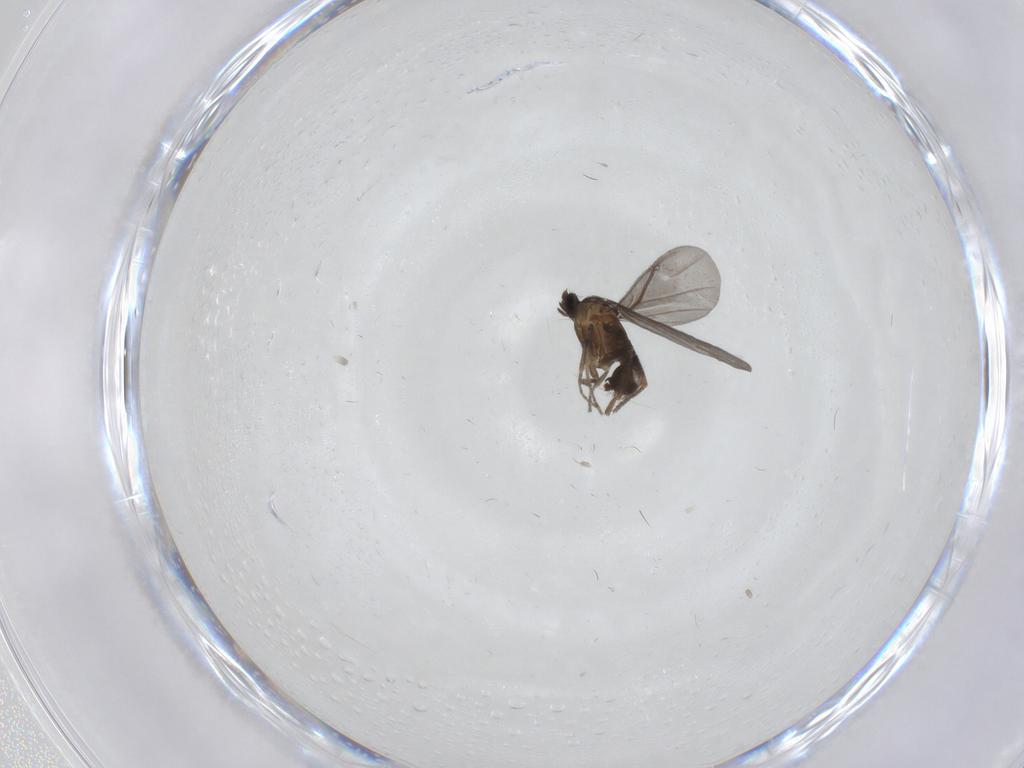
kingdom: Animalia
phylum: Arthropoda
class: Insecta
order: Diptera
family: Phoridae
